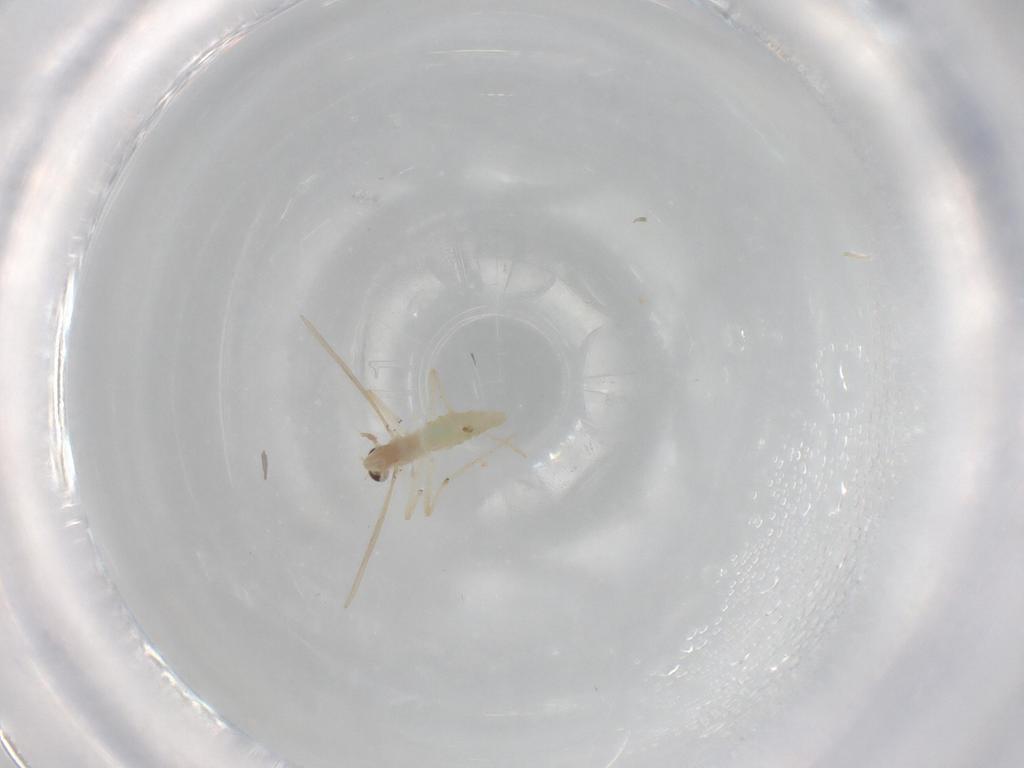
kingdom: Animalia
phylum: Arthropoda
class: Insecta
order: Diptera
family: Chironomidae
